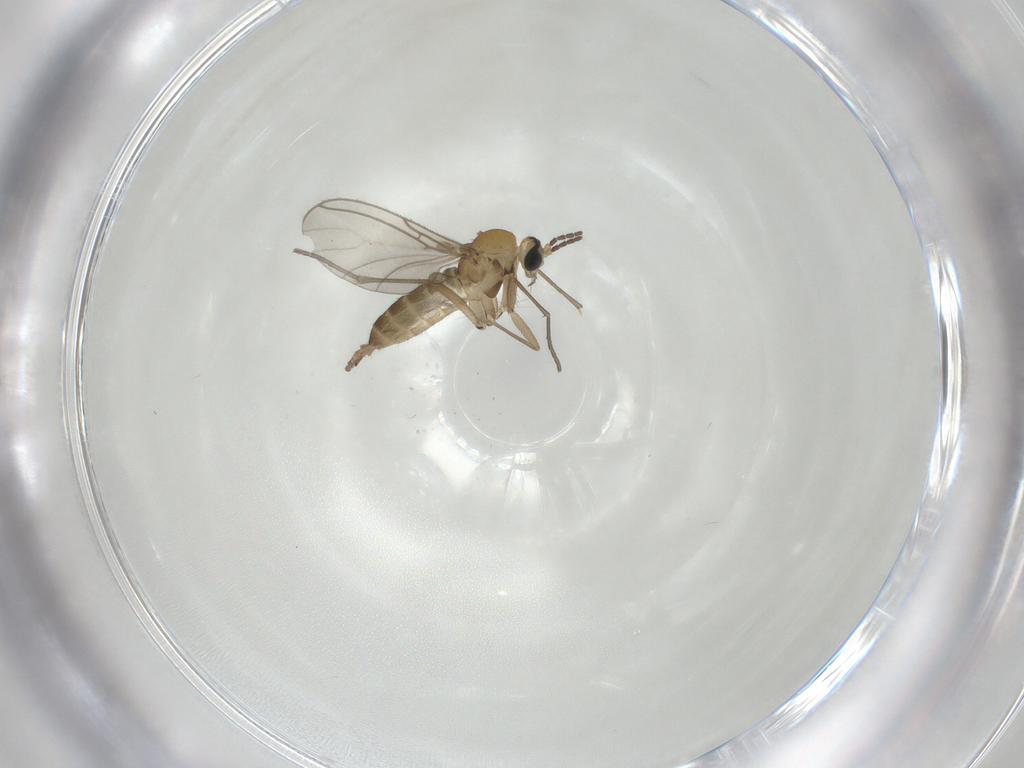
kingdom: Animalia
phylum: Arthropoda
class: Insecta
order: Diptera
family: Sciaridae
